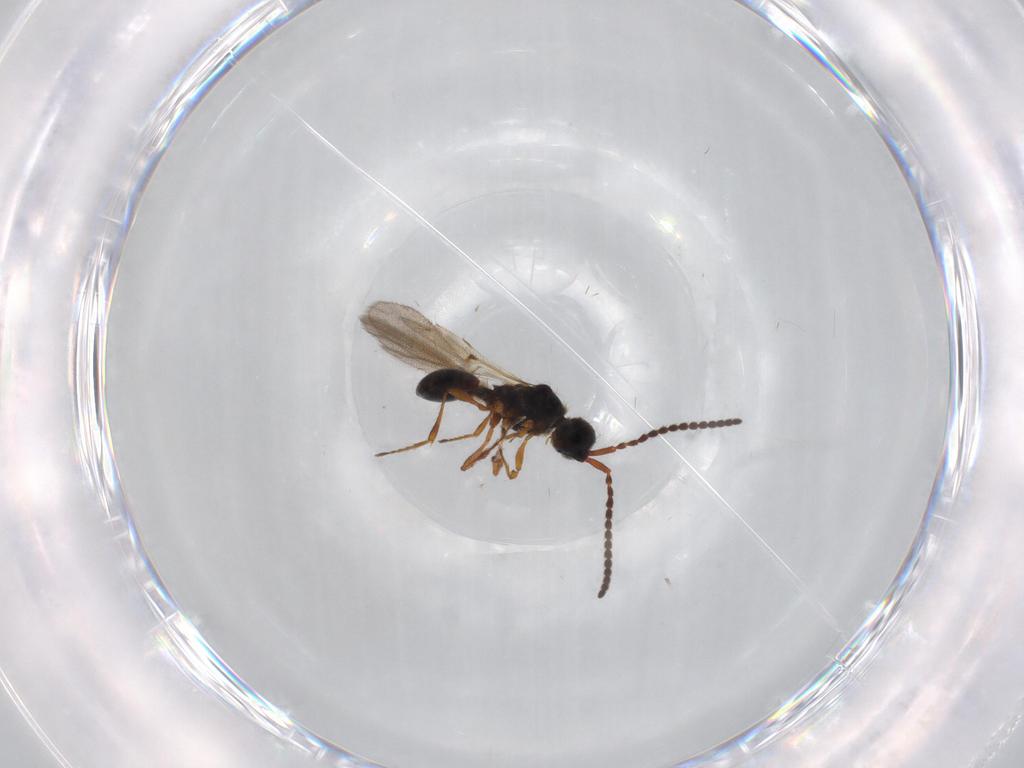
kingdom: Animalia
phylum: Arthropoda
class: Insecta
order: Hymenoptera
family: Diapriidae
